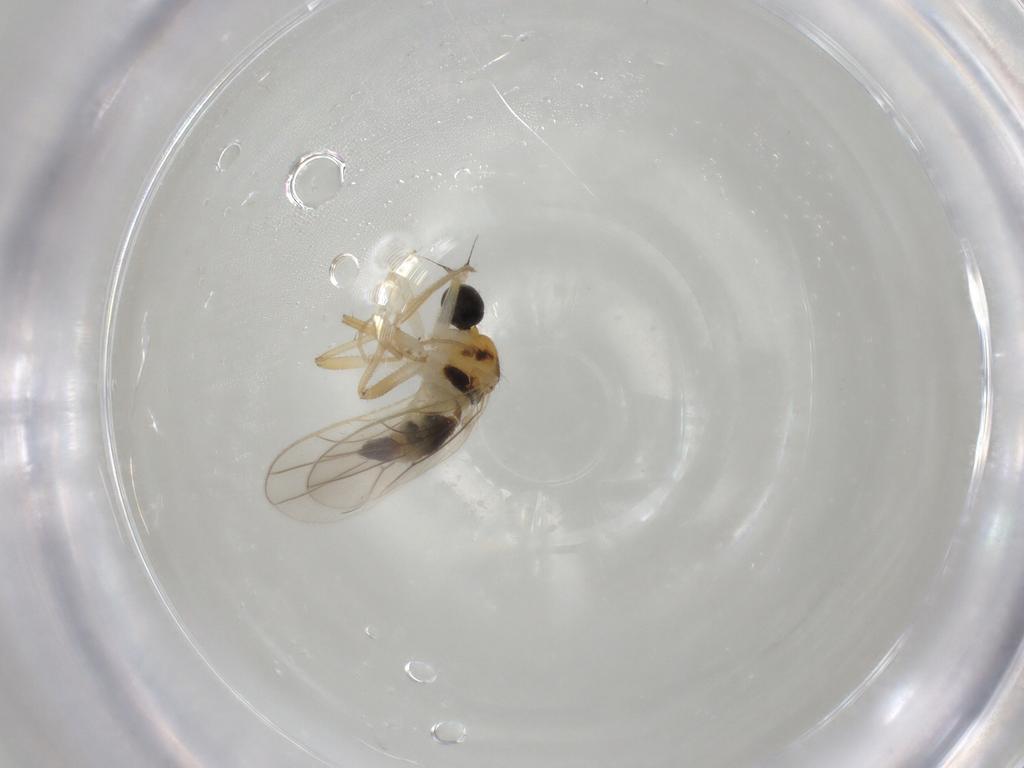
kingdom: Animalia
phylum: Arthropoda
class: Insecta
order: Diptera
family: Hybotidae
